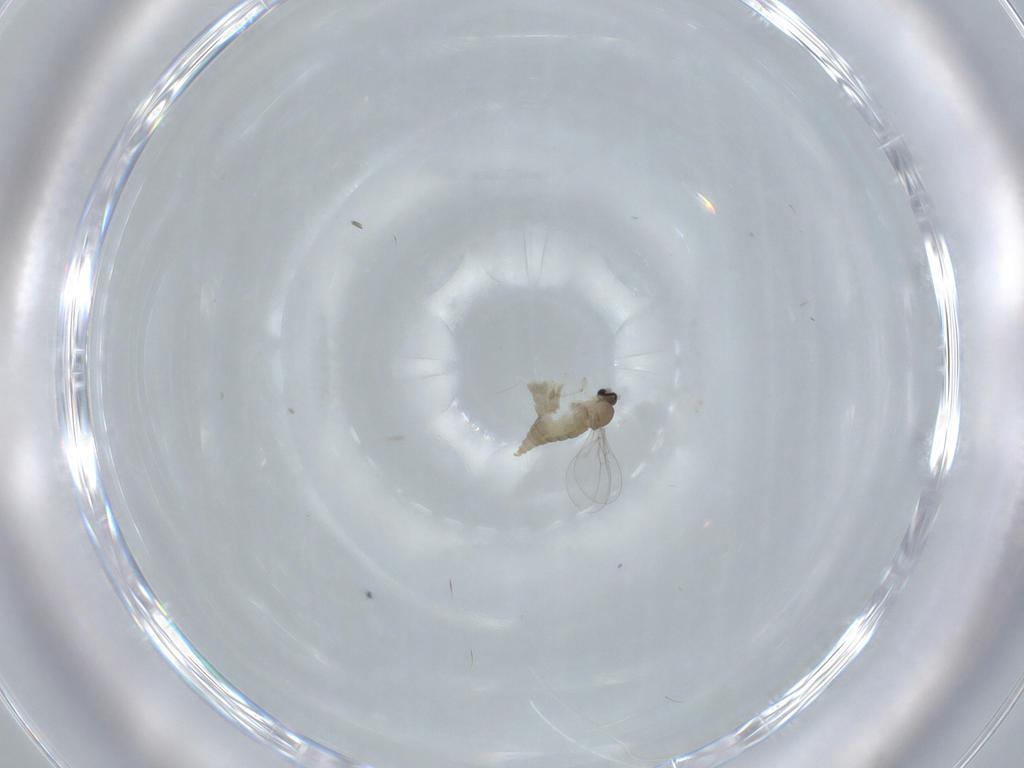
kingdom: Animalia
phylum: Arthropoda
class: Insecta
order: Diptera
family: Cecidomyiidae
